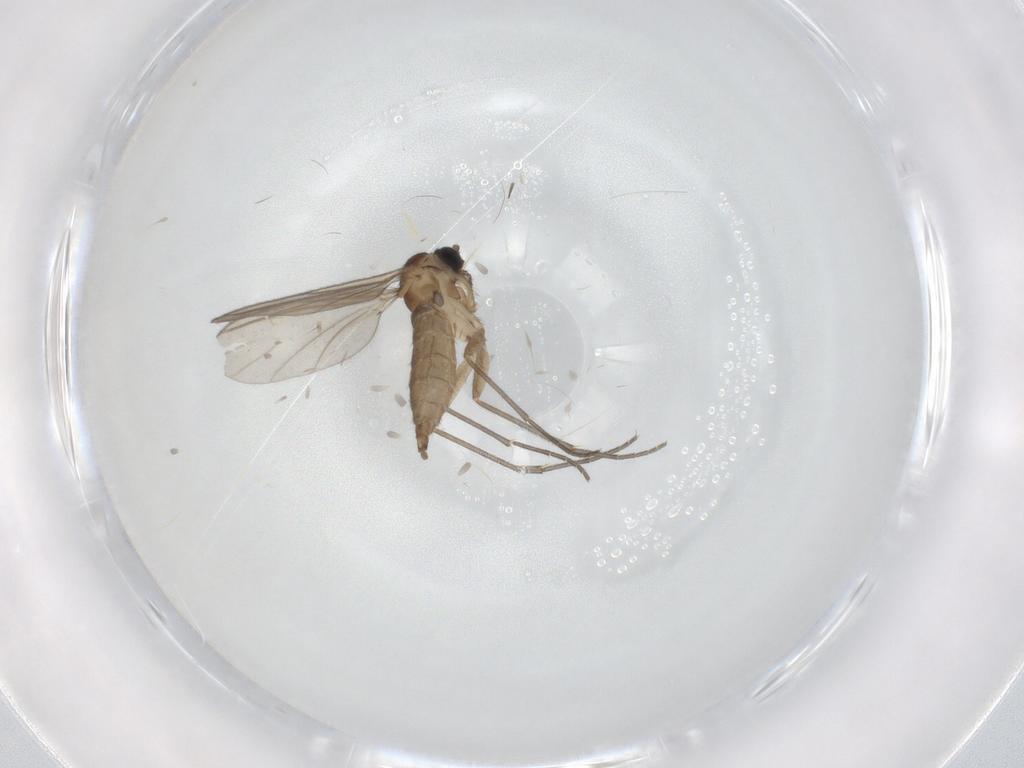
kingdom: Animalia
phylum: Arthropoda
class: Insecta
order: Diptera
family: Sciaridae
